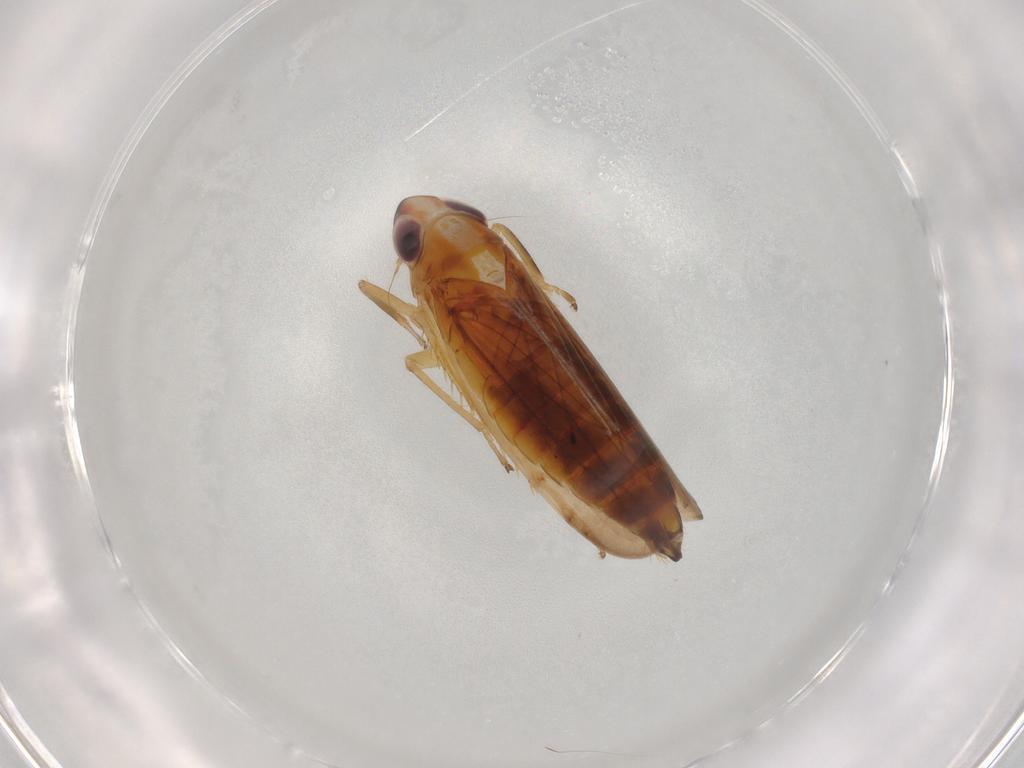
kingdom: Animalia
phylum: Arthropoda
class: Insecta
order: Hemiptera
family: Cicadellidae
